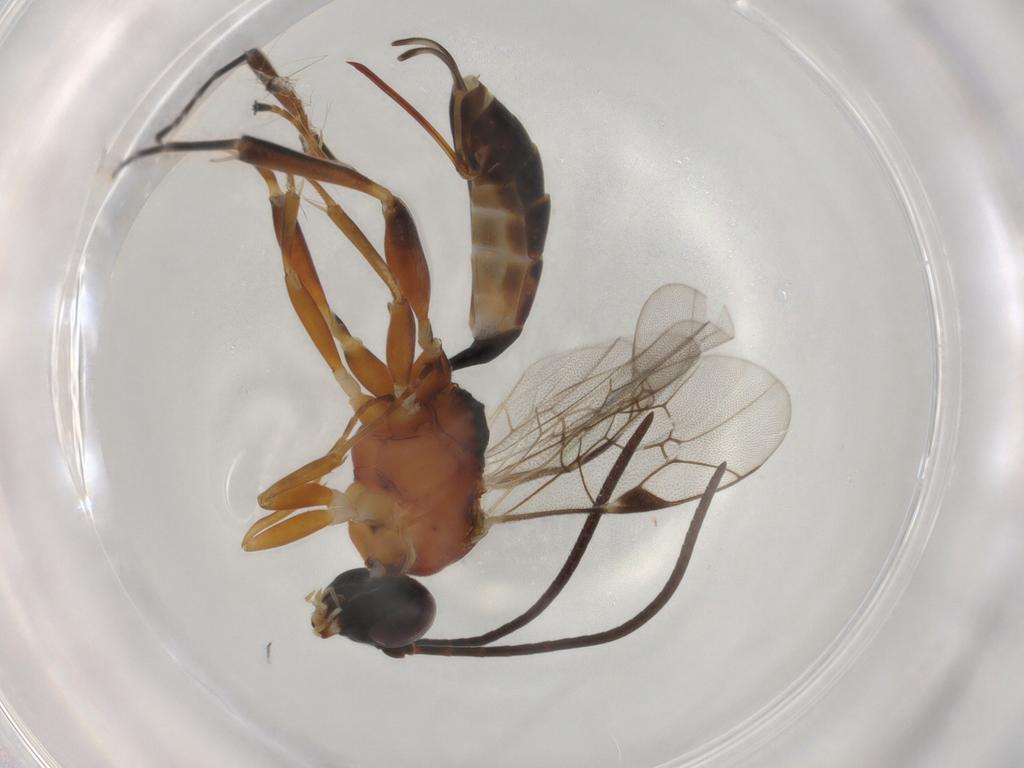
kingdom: Animalia
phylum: Arthropoda
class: Insecta
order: Hymenoptera
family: Ichneumonidae
